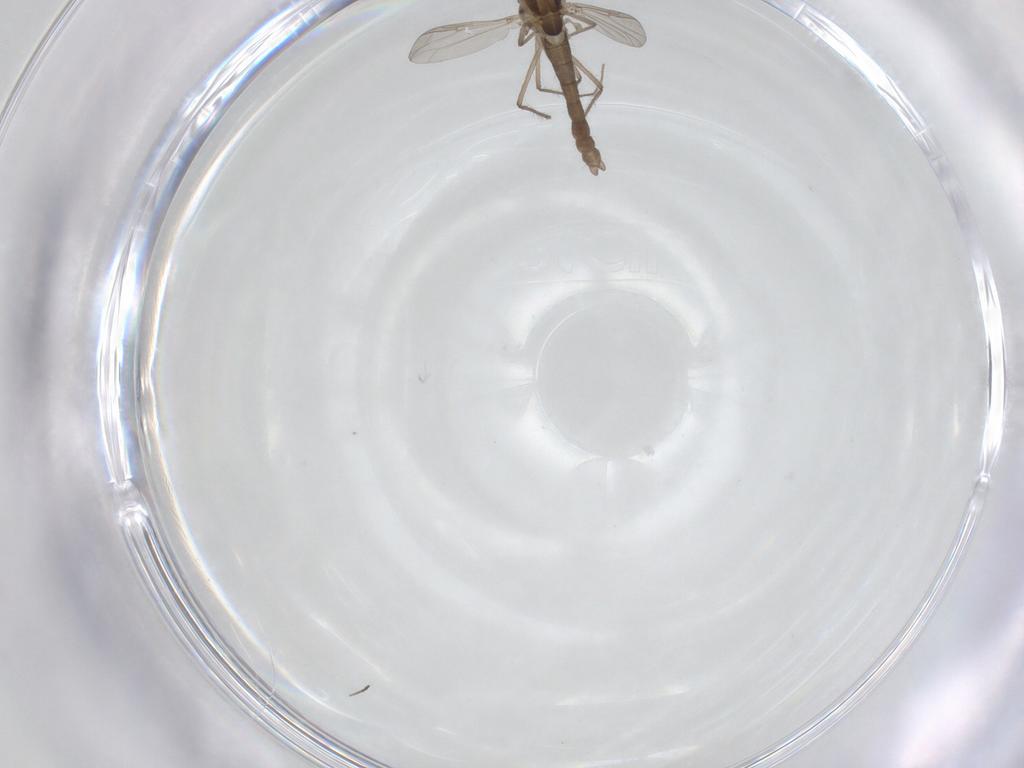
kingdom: Animalia
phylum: Arthropoda
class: Insecta
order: Diptera
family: Chironomidae
